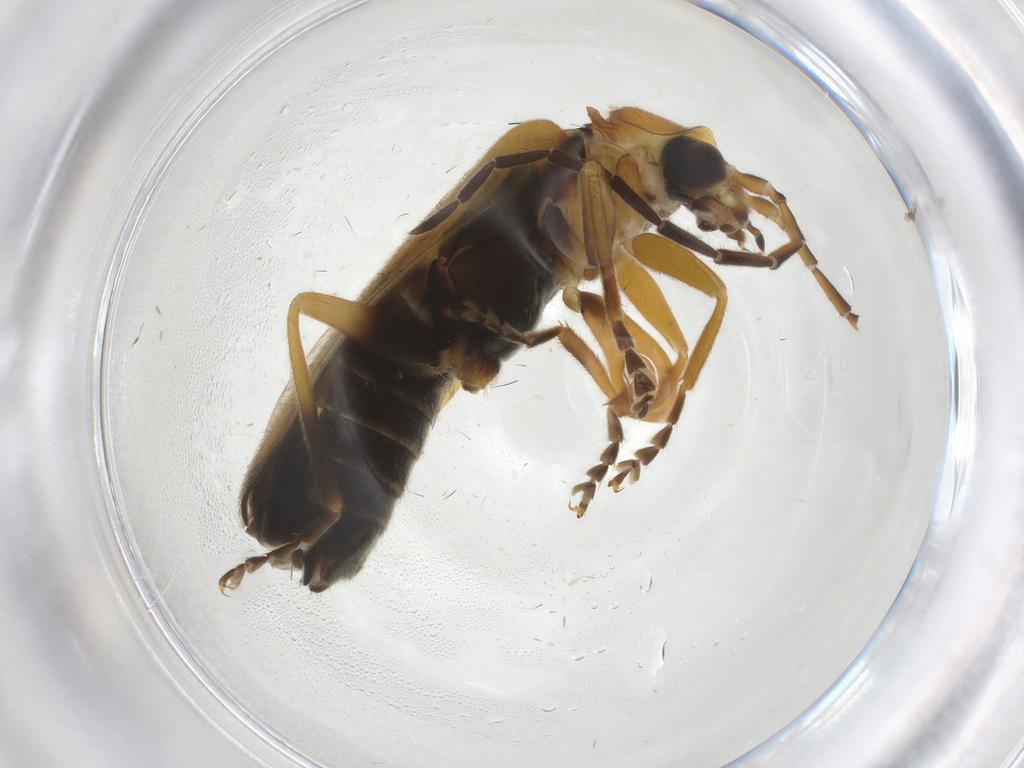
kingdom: Animalia
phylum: Arthropoda
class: Insecta
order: Coleoptera
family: Cantharidae
